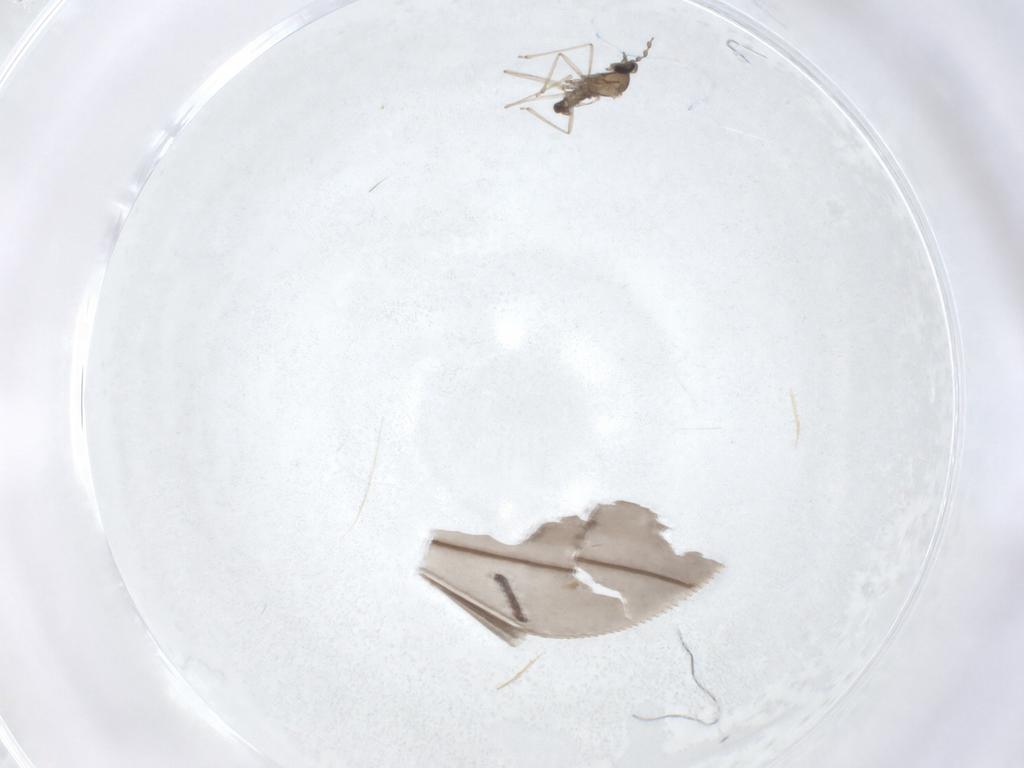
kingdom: Animalia
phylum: Arthropoda
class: Insecta
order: Diptera
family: Cecidomyiidae
